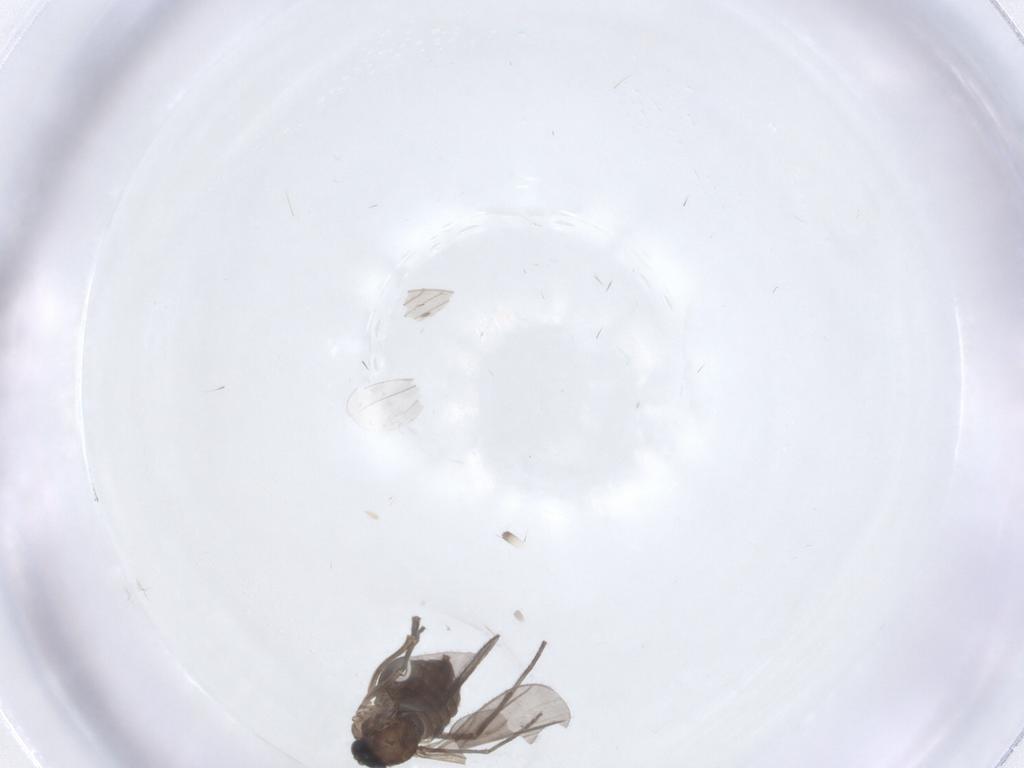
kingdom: Animalia
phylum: Arthropoda
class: Insecta
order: Diptera
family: Sciaridae
